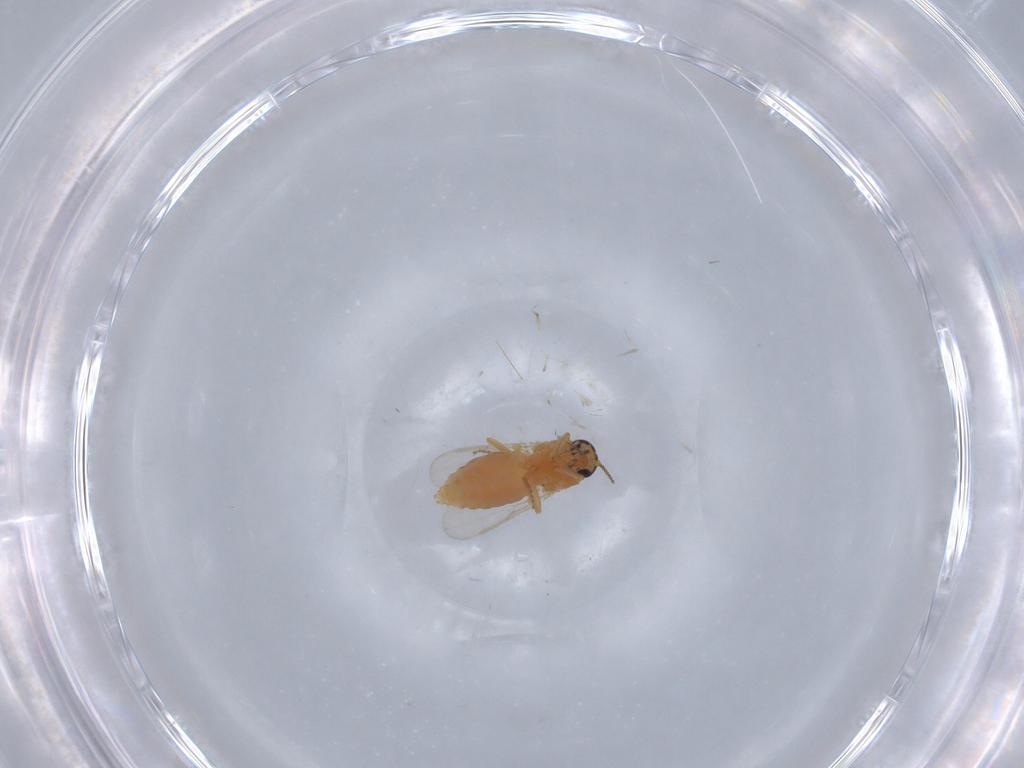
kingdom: Animalia
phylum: Arthropoda
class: Insecta
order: Diptera
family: Ceratopogonidae
